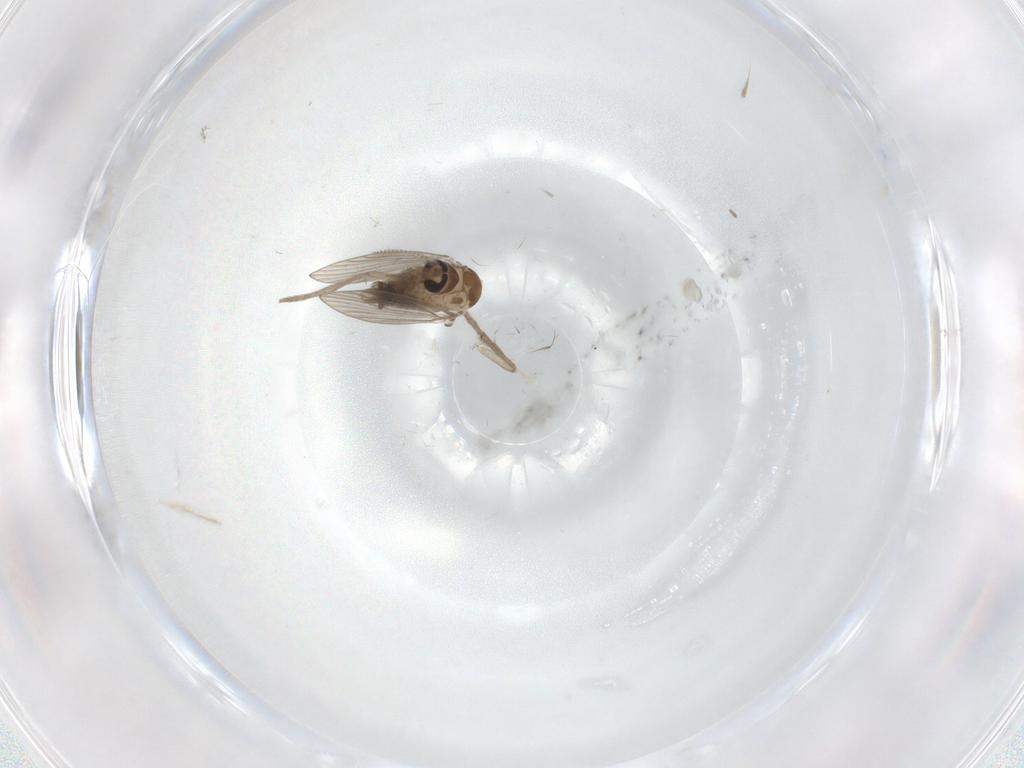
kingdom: Animalia
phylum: Arthropoda
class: Insecta
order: Diptera
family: Psychodidae
